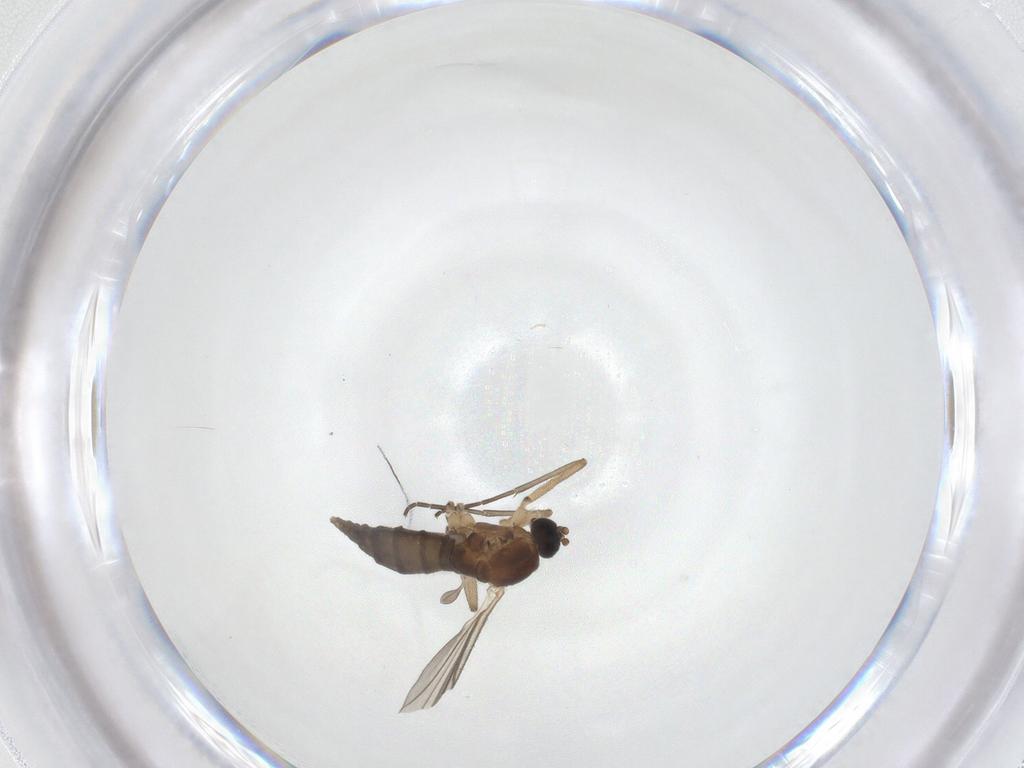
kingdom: Animalia
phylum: Arthropoda
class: Insecta
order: Diptera
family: Sciaridae
